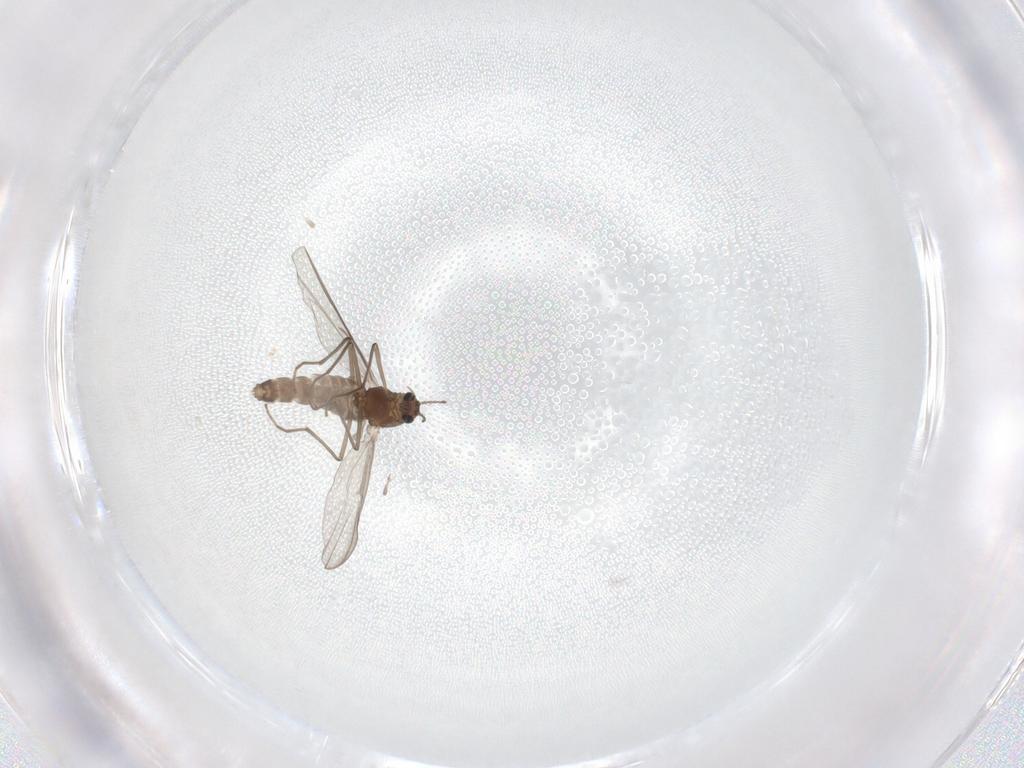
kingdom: Animalia
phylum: Arthropoda
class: Insecta
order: Diptera
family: Chironomidae
